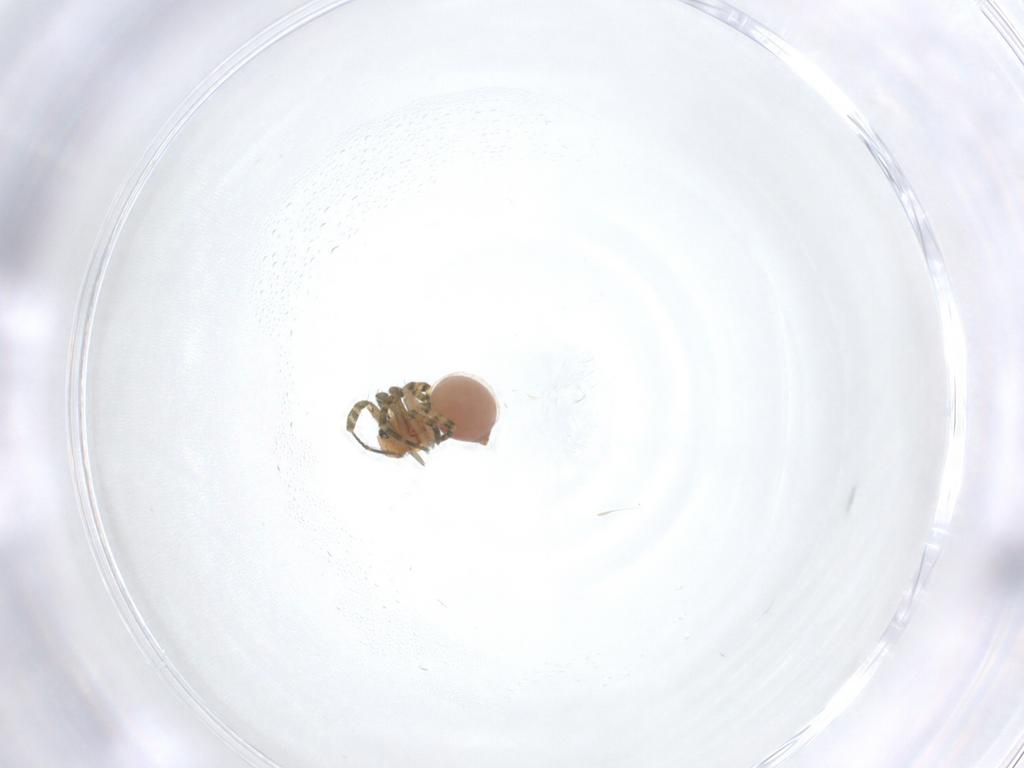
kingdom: Animalia
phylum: Arthropoda
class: Arachnida
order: Araneae
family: Linyphiidae
